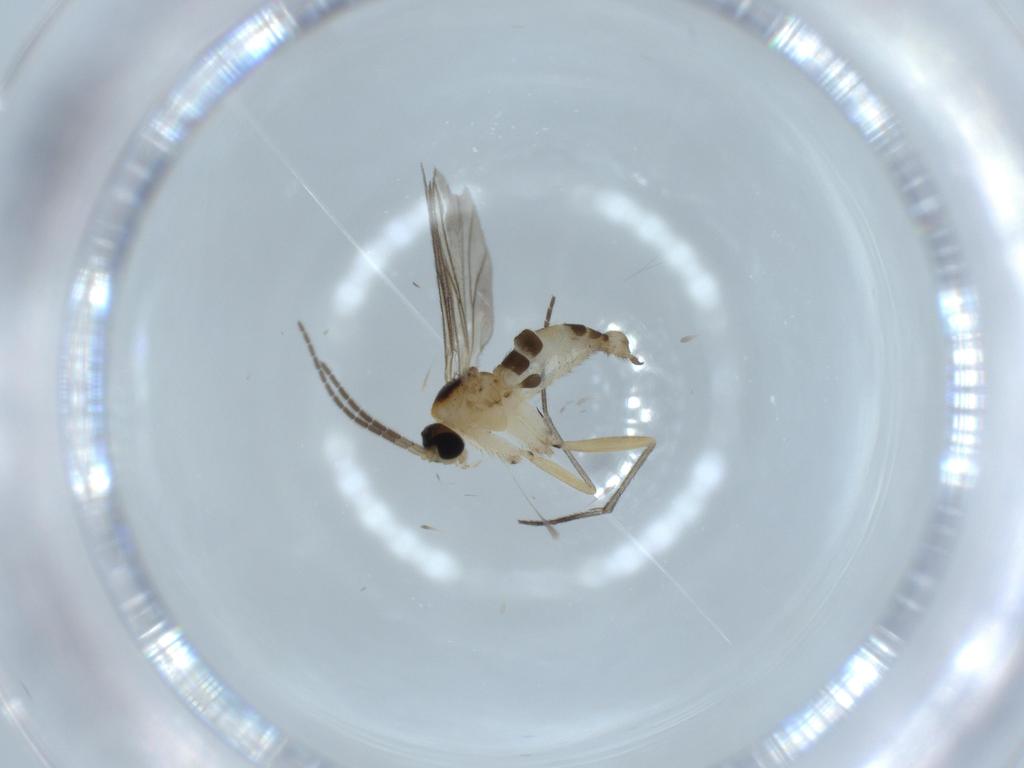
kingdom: Animalia
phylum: Arthropoda
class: Insecta
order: Diptera
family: Sciaridae
